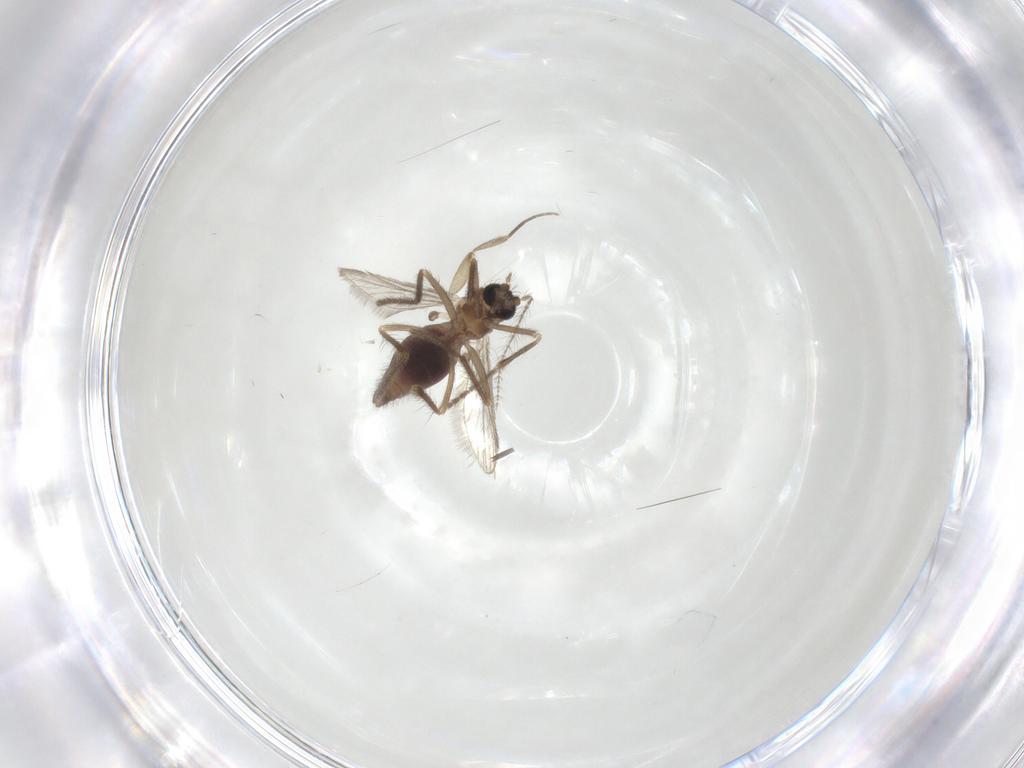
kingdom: Animalia
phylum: Arthropoda
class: Insecta
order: Diptera
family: Corethrellidae
